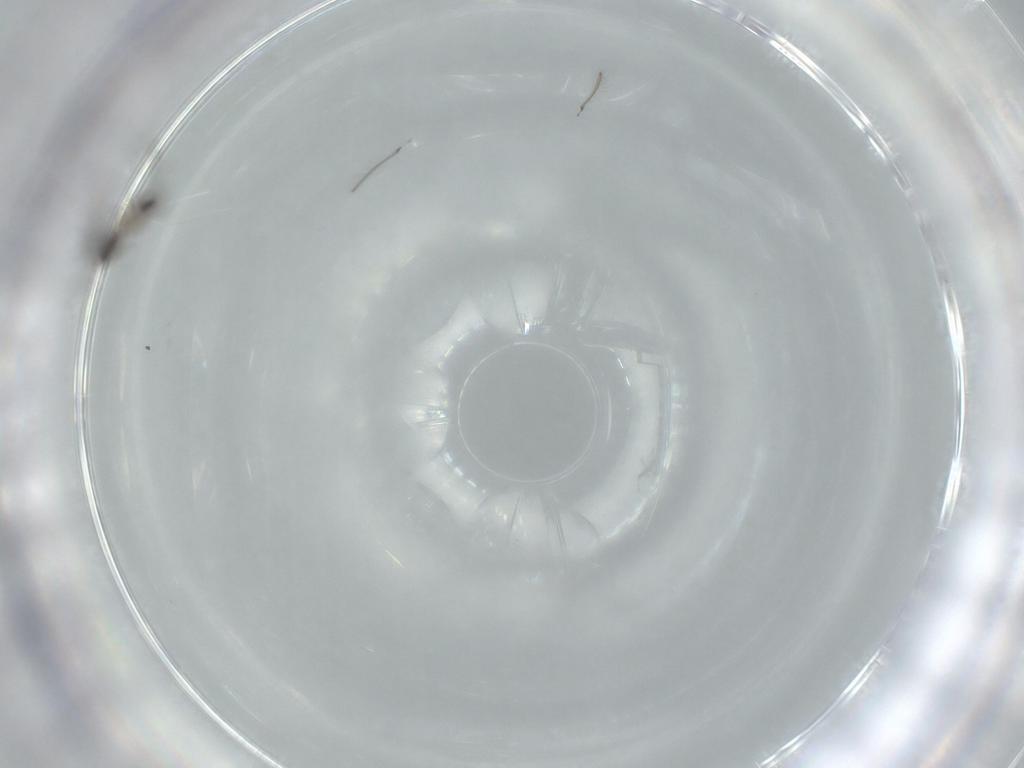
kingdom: Animalia
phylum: Arthropoda
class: Insecta
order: Hymenoptera
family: Mymaridae
